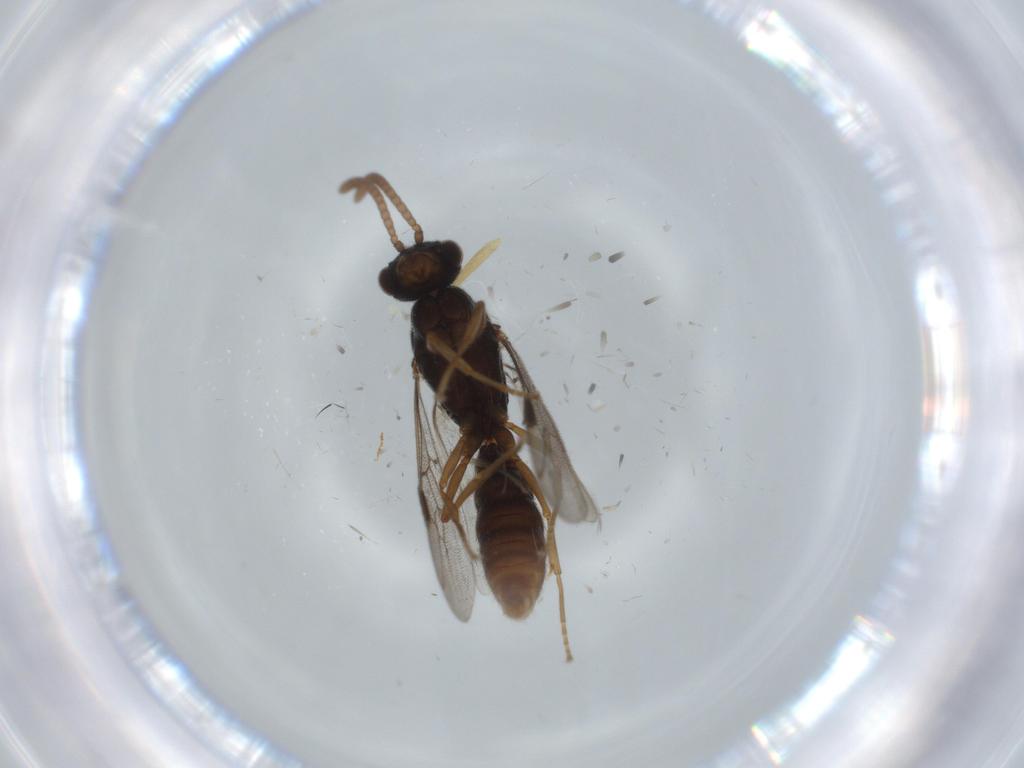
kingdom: Animalia
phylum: Arthropoda
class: Insecta
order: Hymenoptera
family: Formicidae
